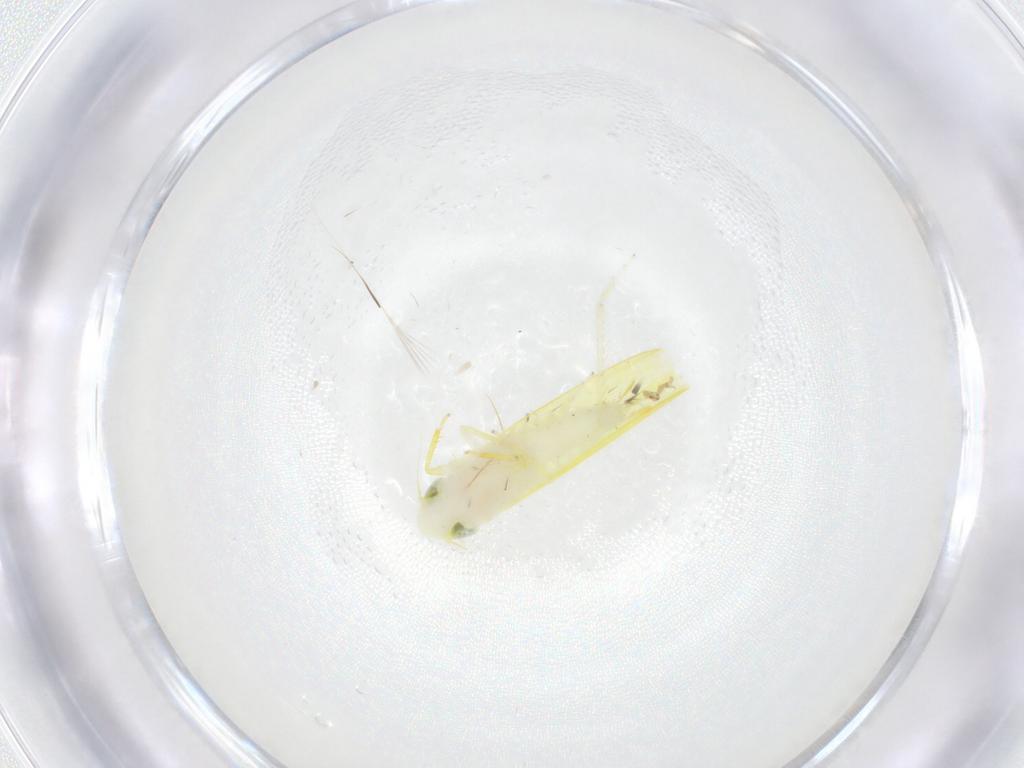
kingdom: Animalia
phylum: Arthropoda
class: Insecta
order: Hemiptera
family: Cicadellidae
